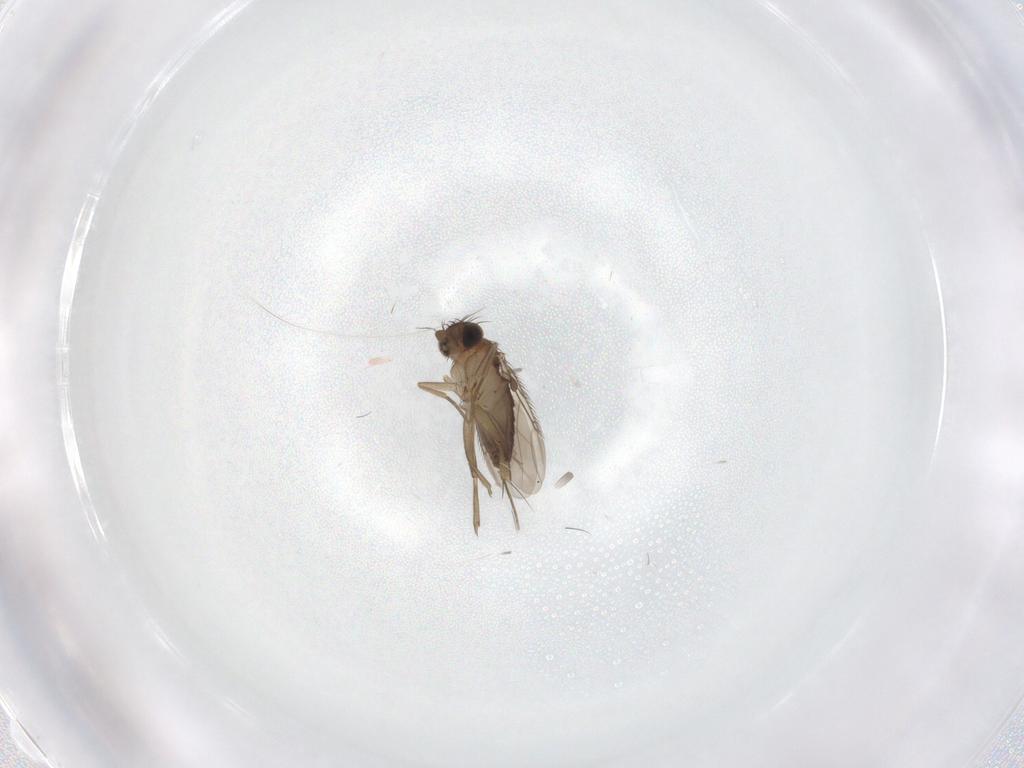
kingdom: Animalia
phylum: Arthropoda
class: Insecta
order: Diptera
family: Phoridae
